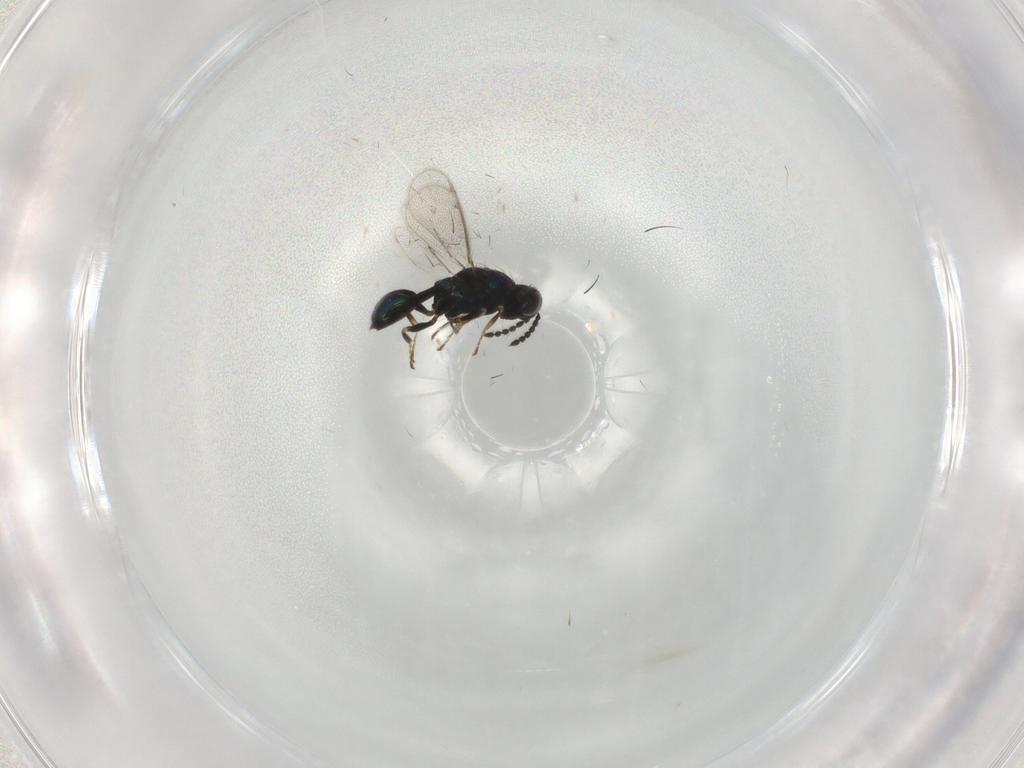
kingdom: Animalia
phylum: Arthropoda
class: Insecta
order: Hymenoptera
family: Eulophidae
